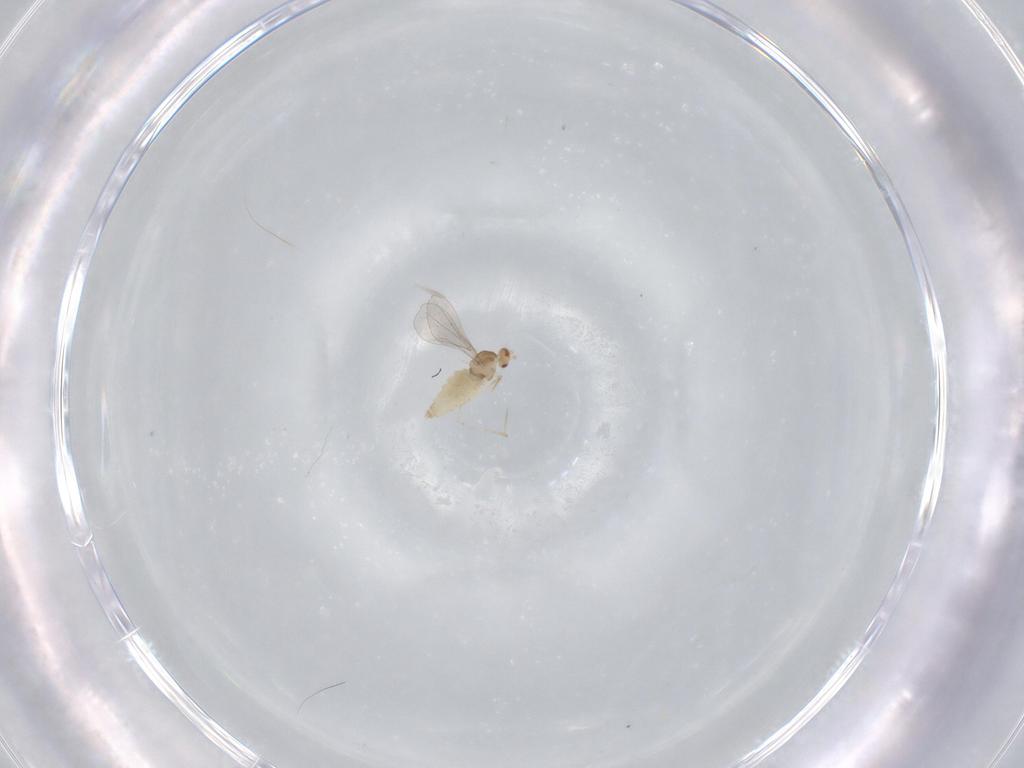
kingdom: Animalia
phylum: Arthropoda
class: Insecta
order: Diptera
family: Cecidomyiidae
